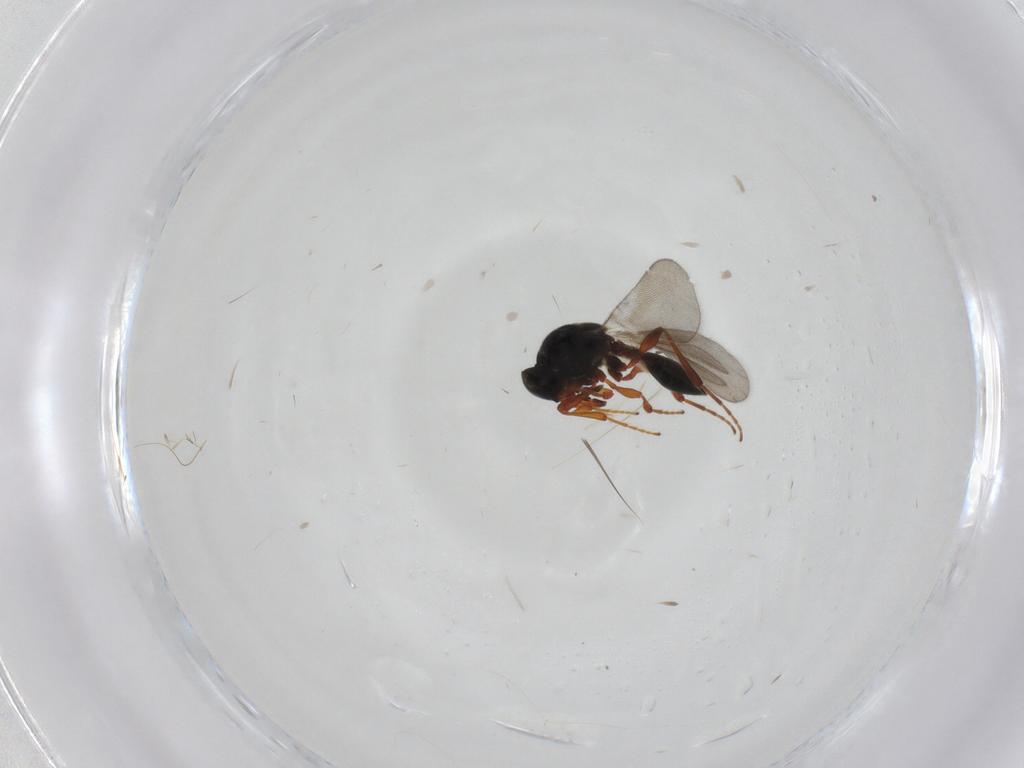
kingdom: Animalia
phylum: Arthropoda
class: Insecta
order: Hymenoptera
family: Platygastridae
